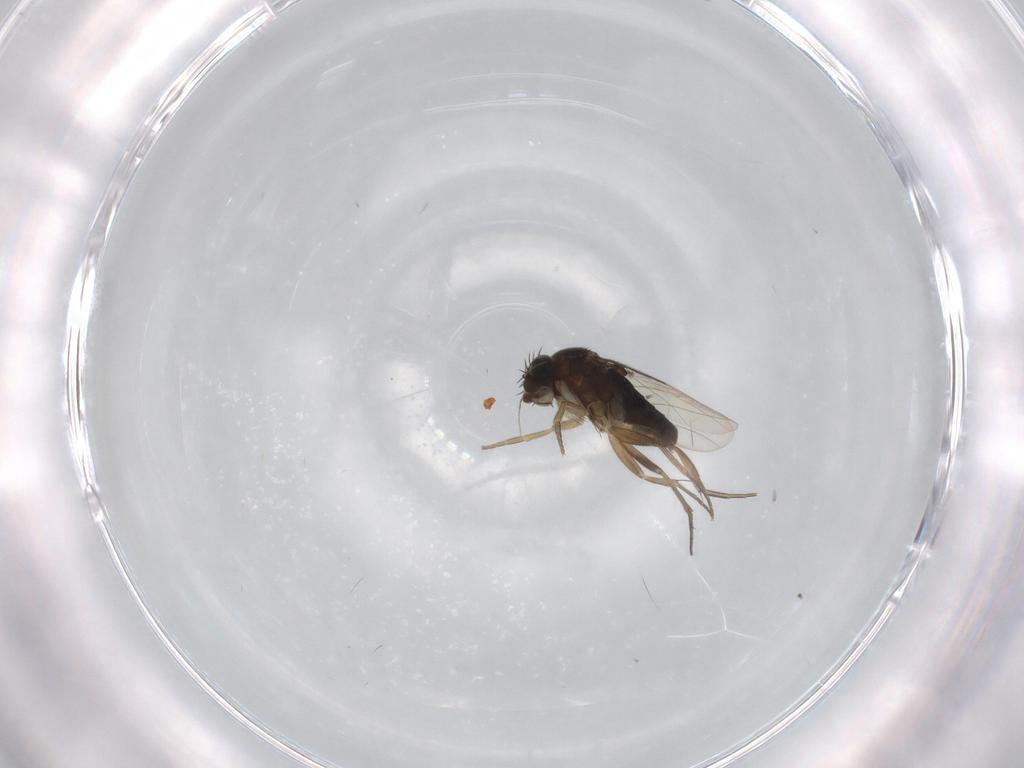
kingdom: Animalia
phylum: Arthropoda
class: Insecta
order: Diptera
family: Phoridae
